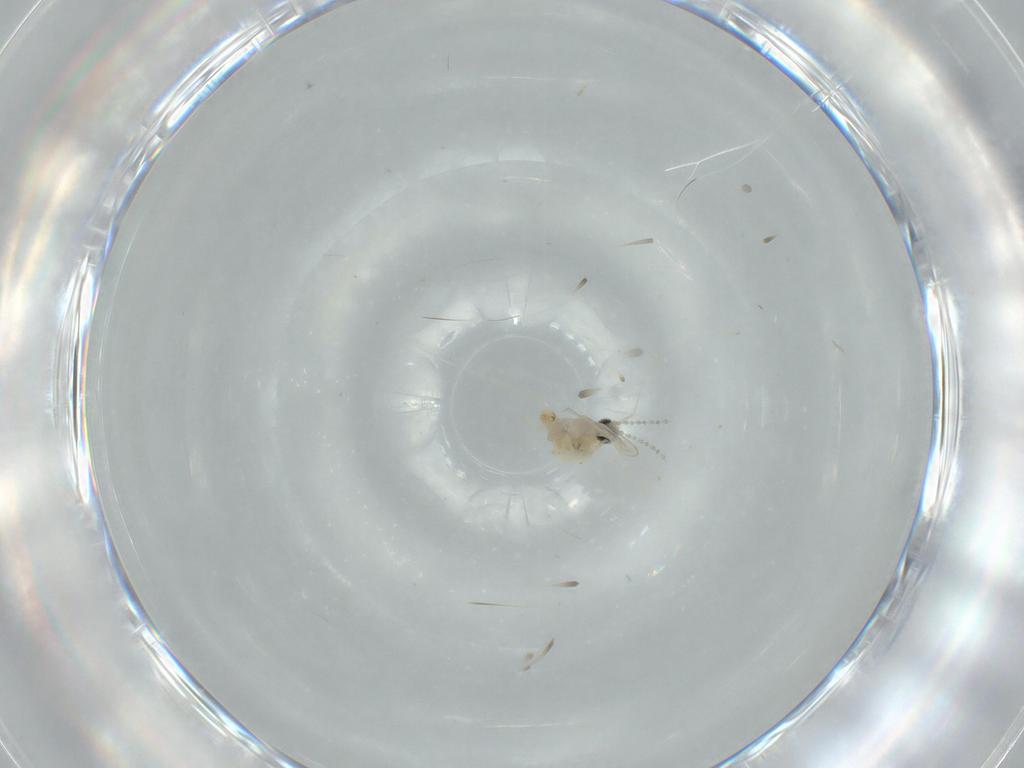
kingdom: Animalia
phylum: Arthropoda
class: Insecta
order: Diptera
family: Cecidomyiidae
